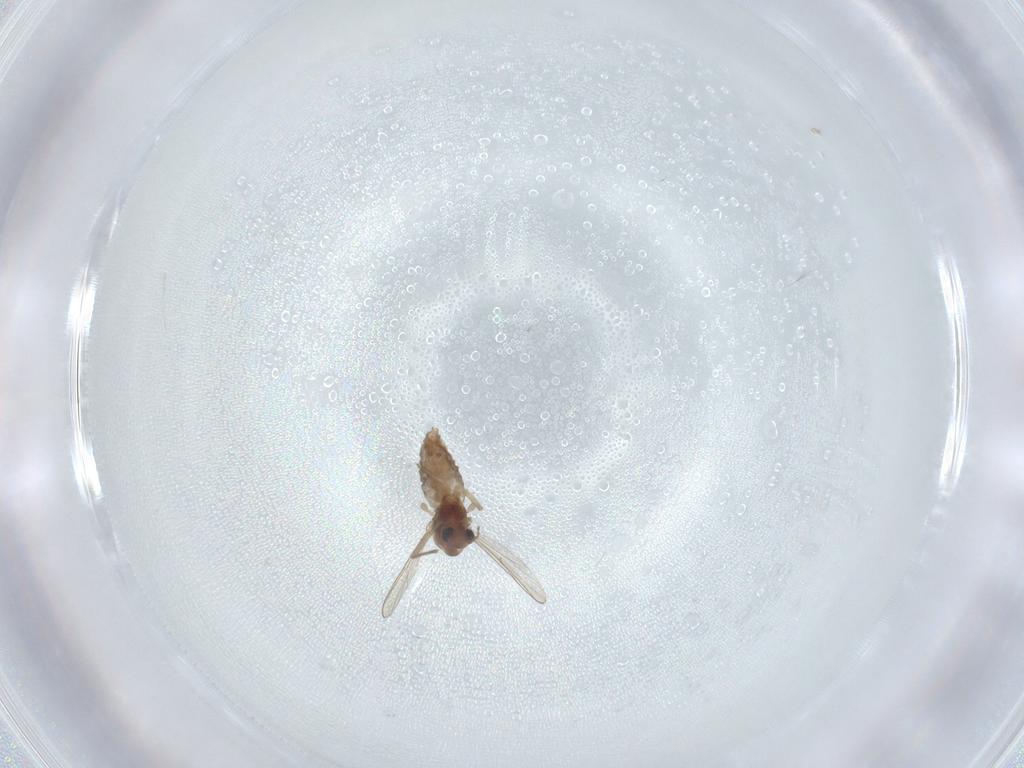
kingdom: Animalia
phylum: Arthropoda
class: Insecta
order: Diptera
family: Chironomidae
